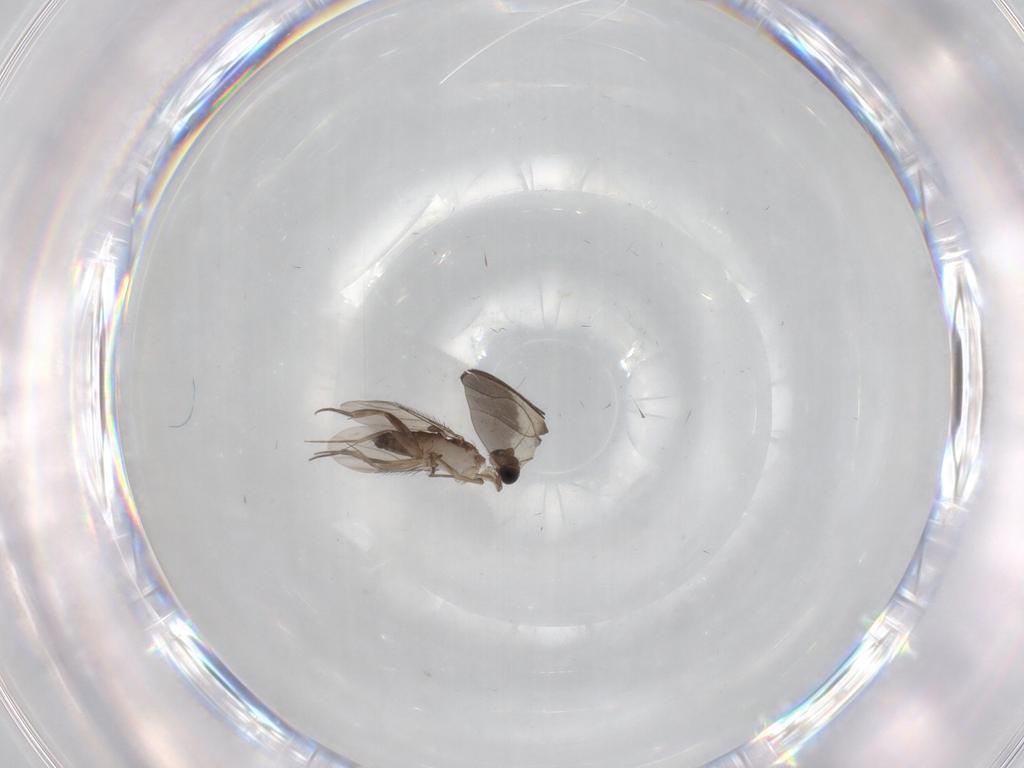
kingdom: Animalia
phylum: Arthropoda
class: Insecta
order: Diptera
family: Phoridae
